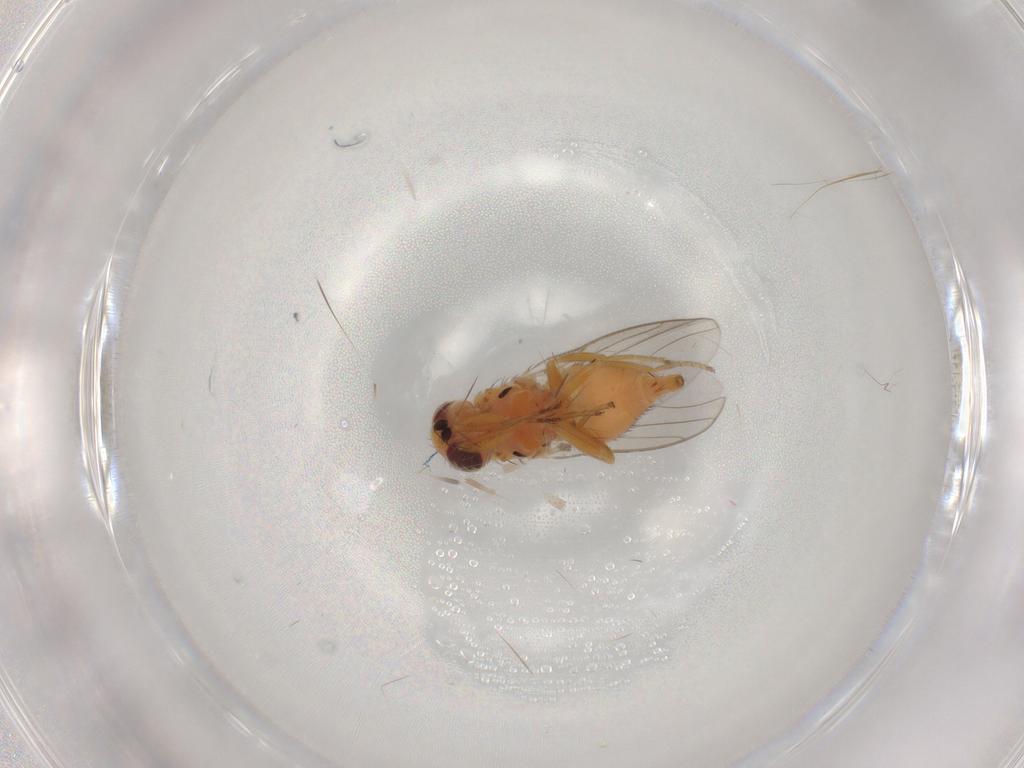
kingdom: Animalia
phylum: Arthropoda
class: Insecta
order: Diptera
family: Cecidomyiidae
